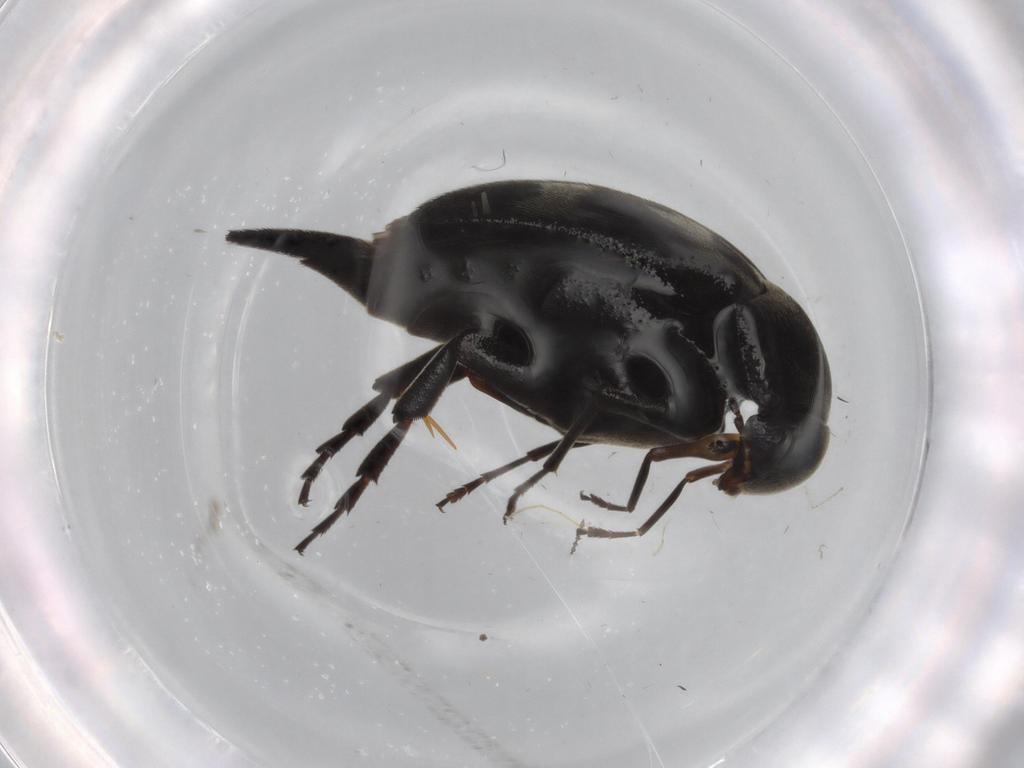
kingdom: Animalia
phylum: Arthropoda
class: Insecta
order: Coleoptera
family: Mordellidae
